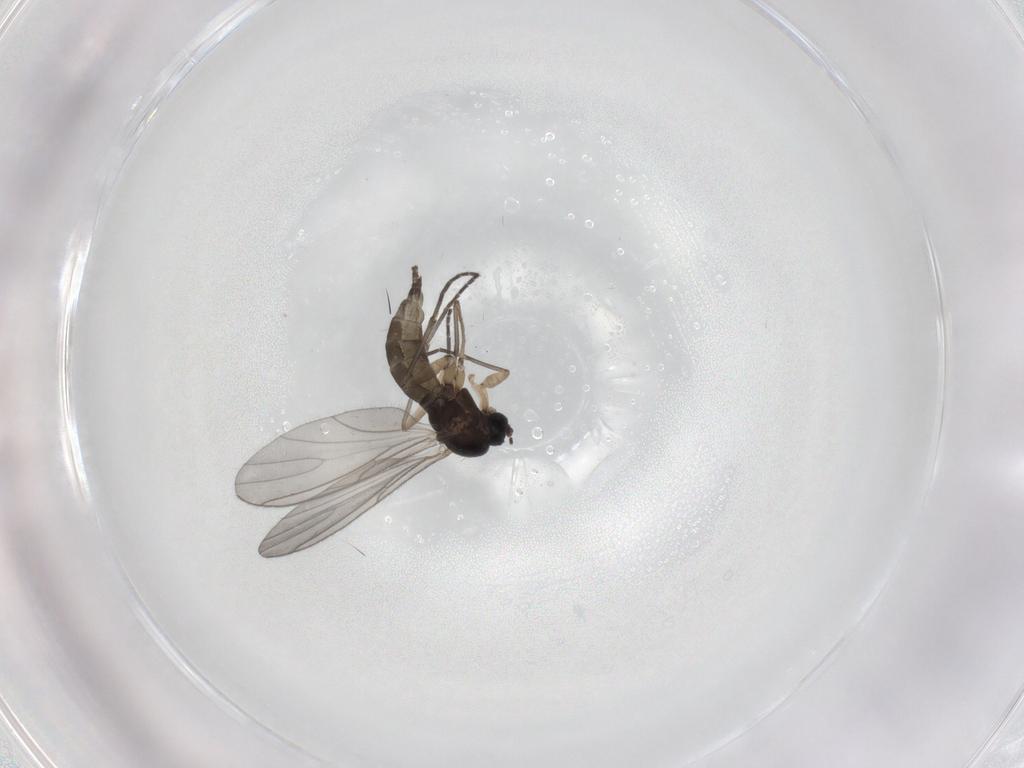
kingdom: Animalia
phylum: Arthropoda
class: Insecta
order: Diptera
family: Sciaridae
